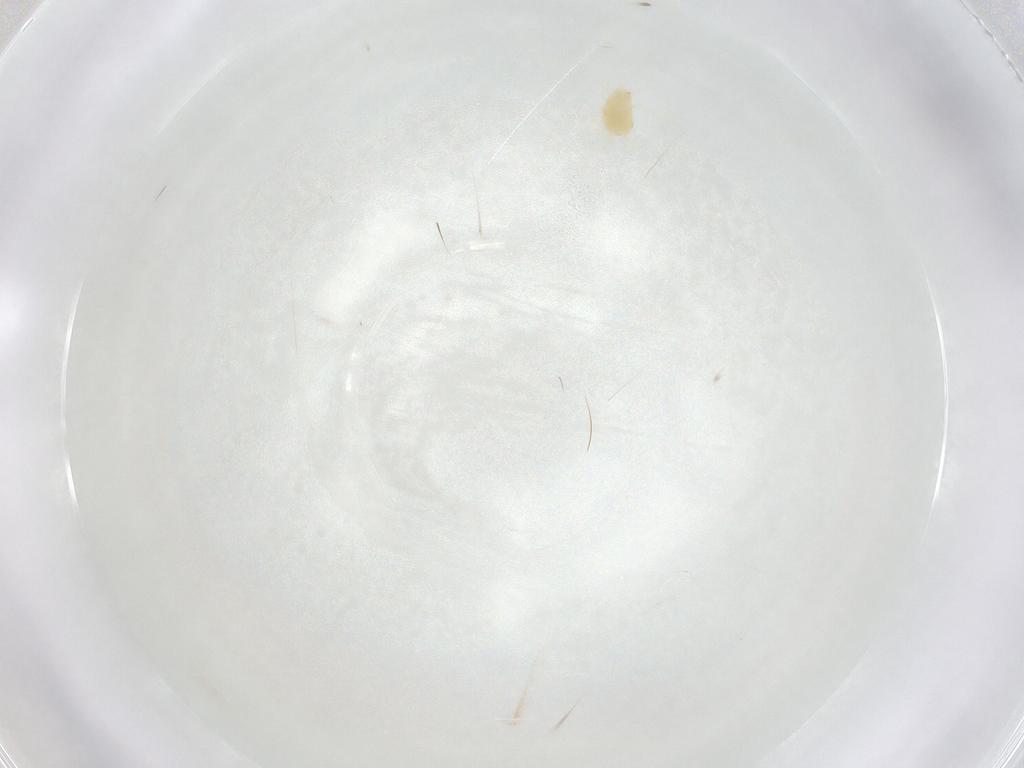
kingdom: Animalia
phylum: Arthropoda
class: Arachnida
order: Trombidiformes
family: Tetranychidae
